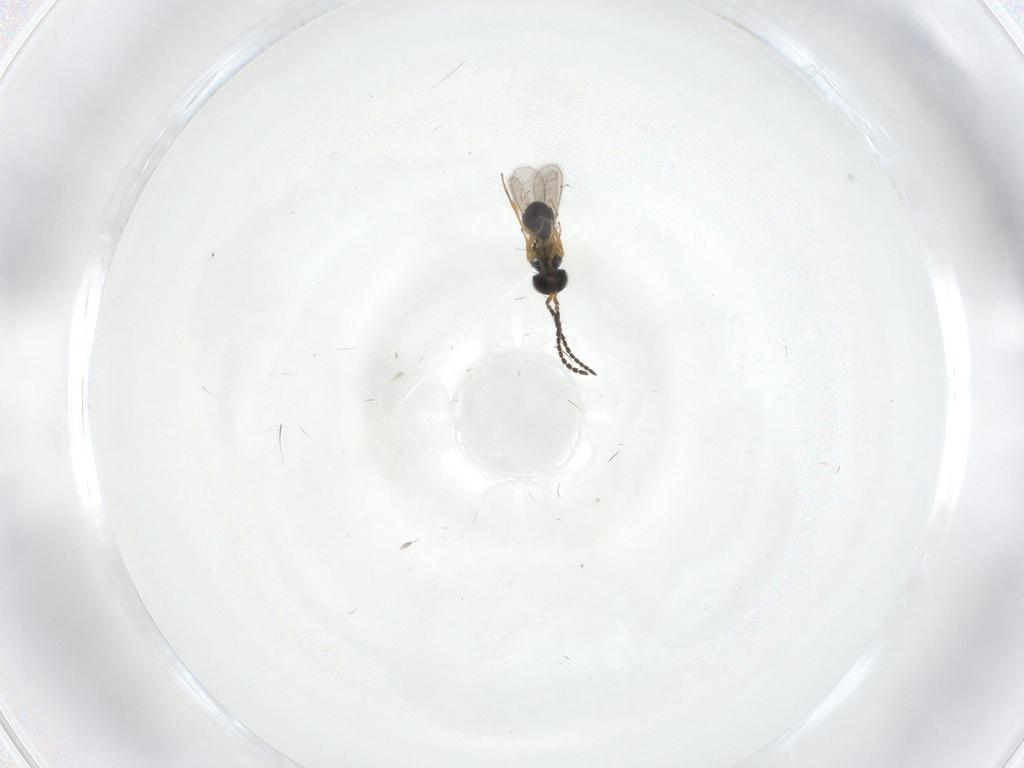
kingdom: Animalia
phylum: Arthropoda
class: Insecta
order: Hymenoptera
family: Scelionidae
